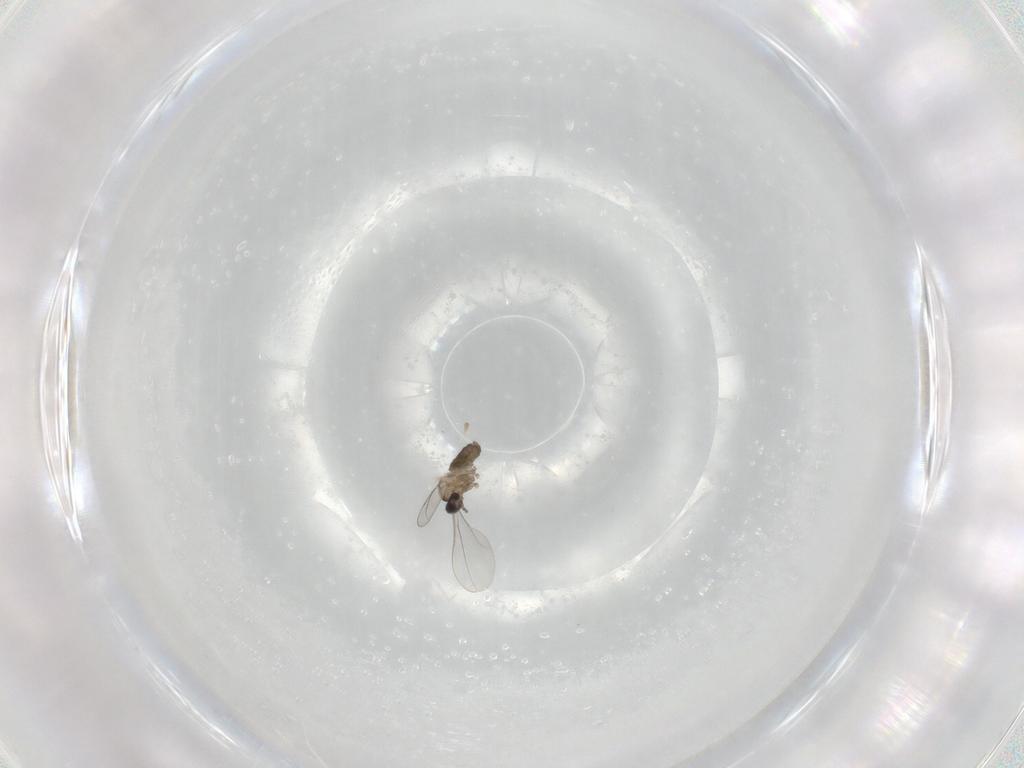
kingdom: Animalia
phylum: Arthropoda
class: Insecta
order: Diptera
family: Cecidomyiidae
